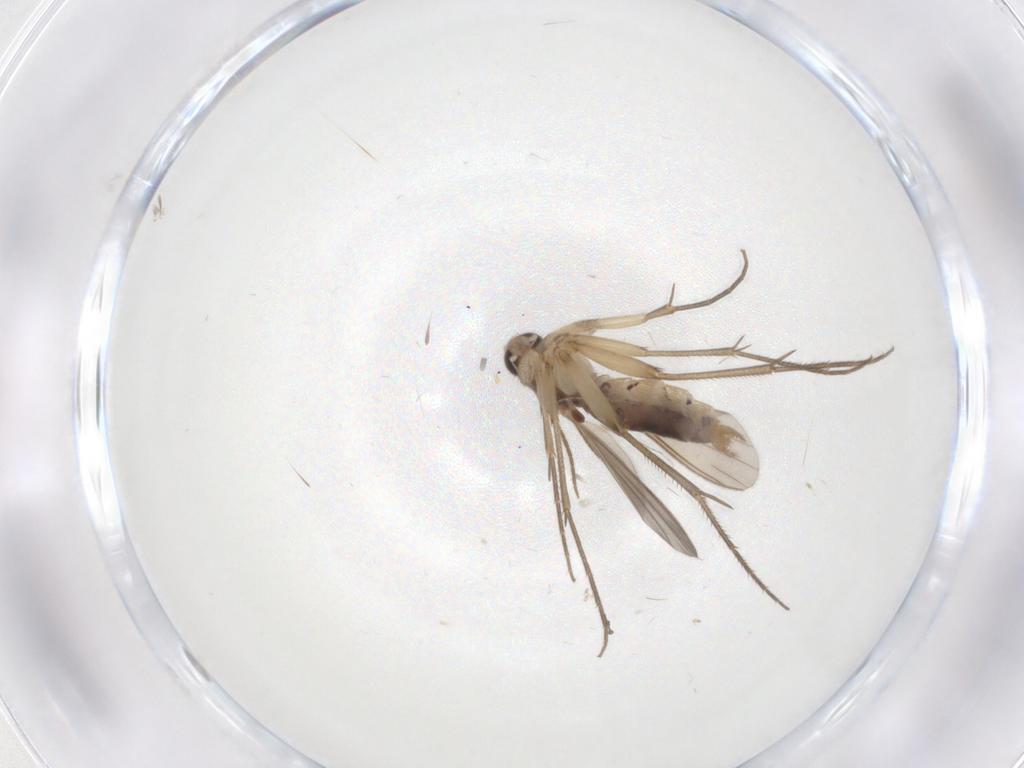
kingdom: Animalia
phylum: Arthropoda
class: Insecta
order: Diptera
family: Mycetophilidae
